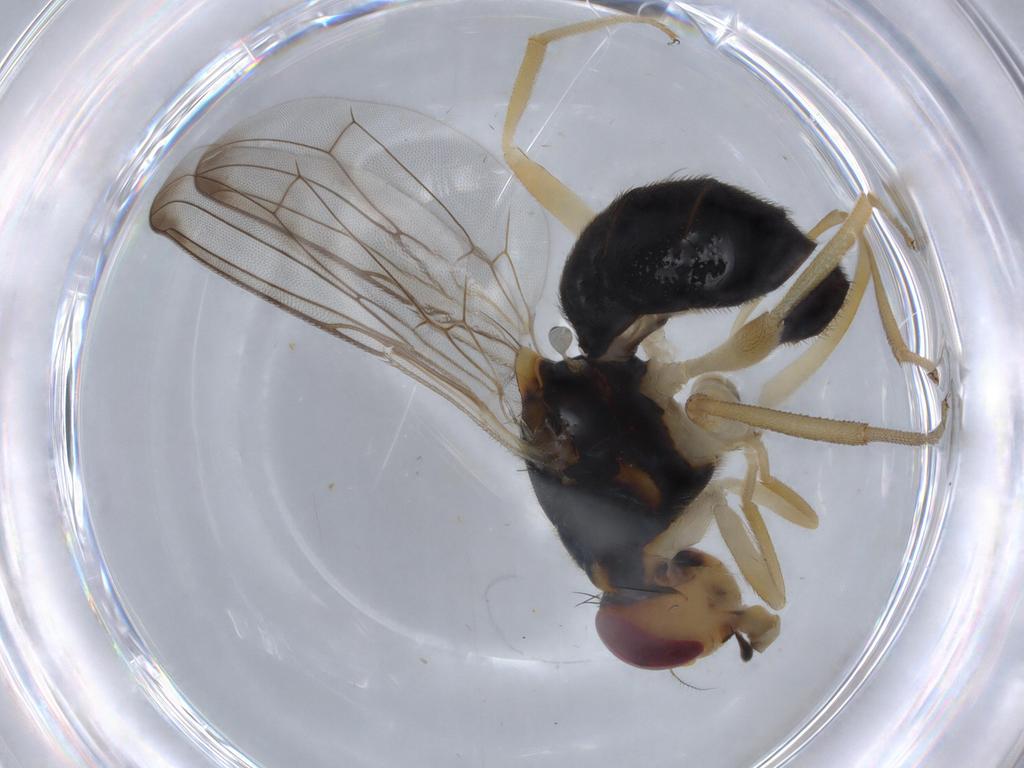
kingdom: Animalia
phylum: Arthropoda
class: Insecta
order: Diptera
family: Psilidae
